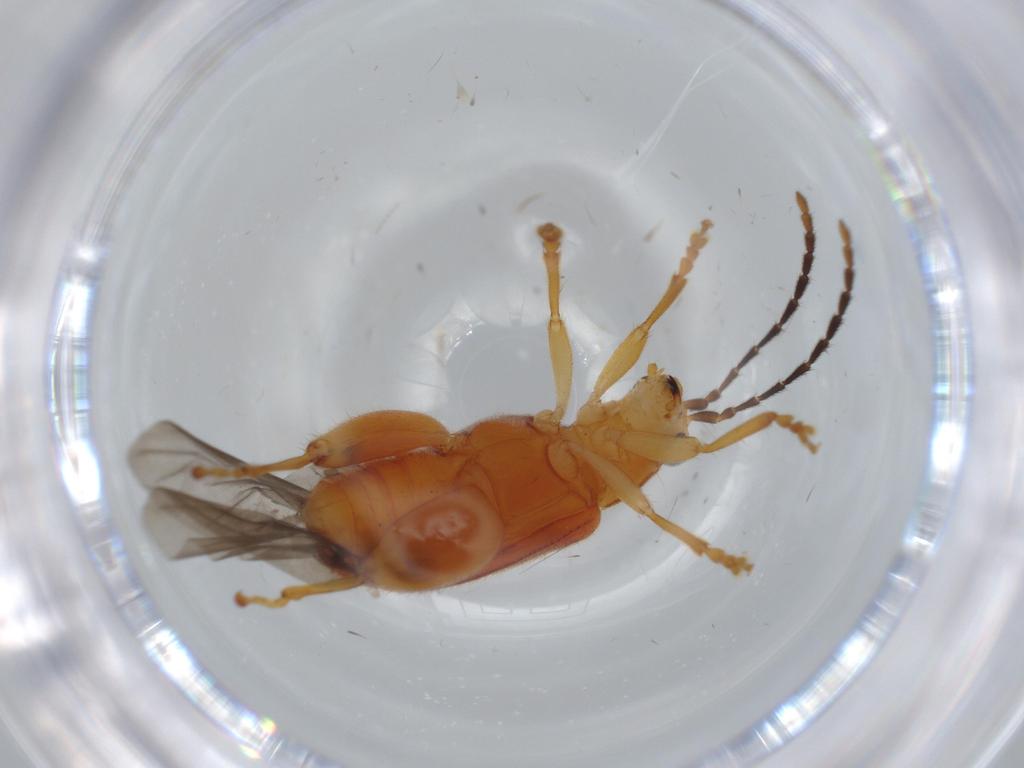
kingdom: Animalia
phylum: Arthropoda
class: Insecta
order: Coleoptera
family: Chrysomelidae
